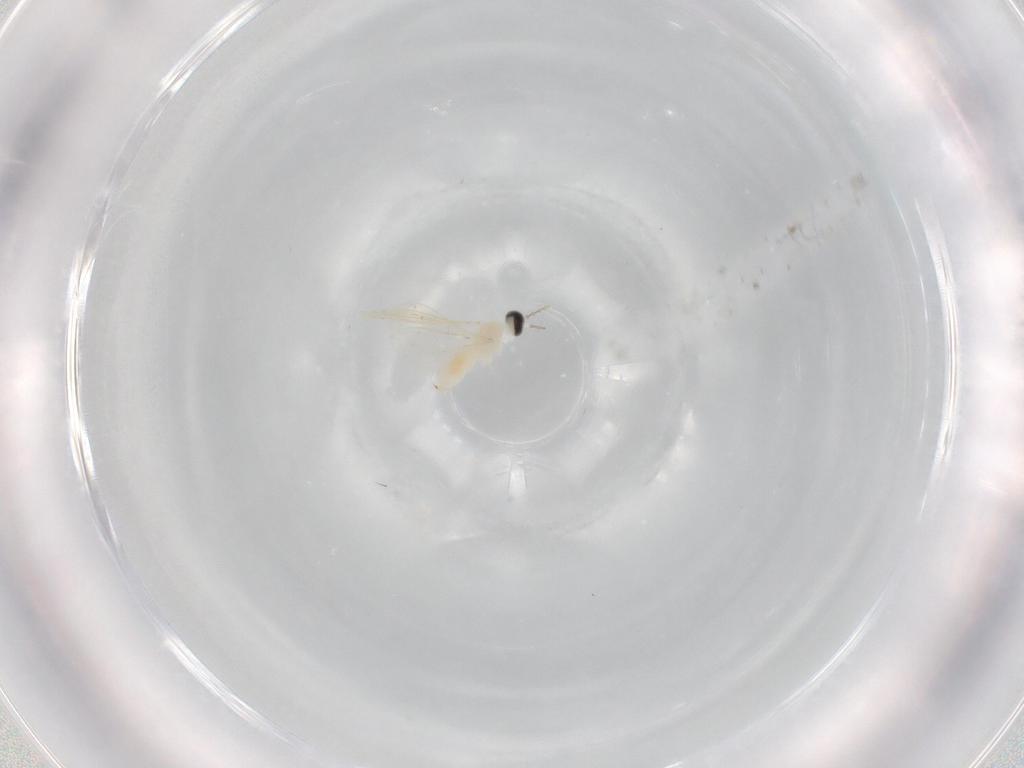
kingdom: Animalia
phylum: Arthropoda
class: Insecta
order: Diptera
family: Cecidomyiidae
